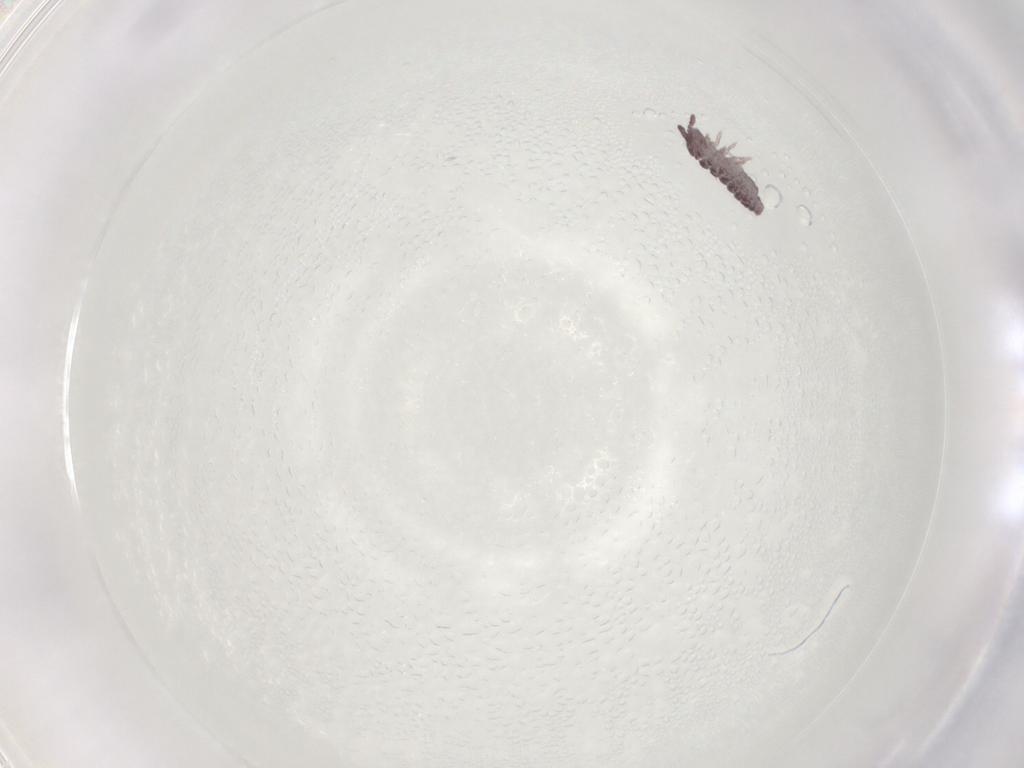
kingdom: Animalia
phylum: Arthropoda
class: Collembola
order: Poduromorpha
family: Hypogastruridae
